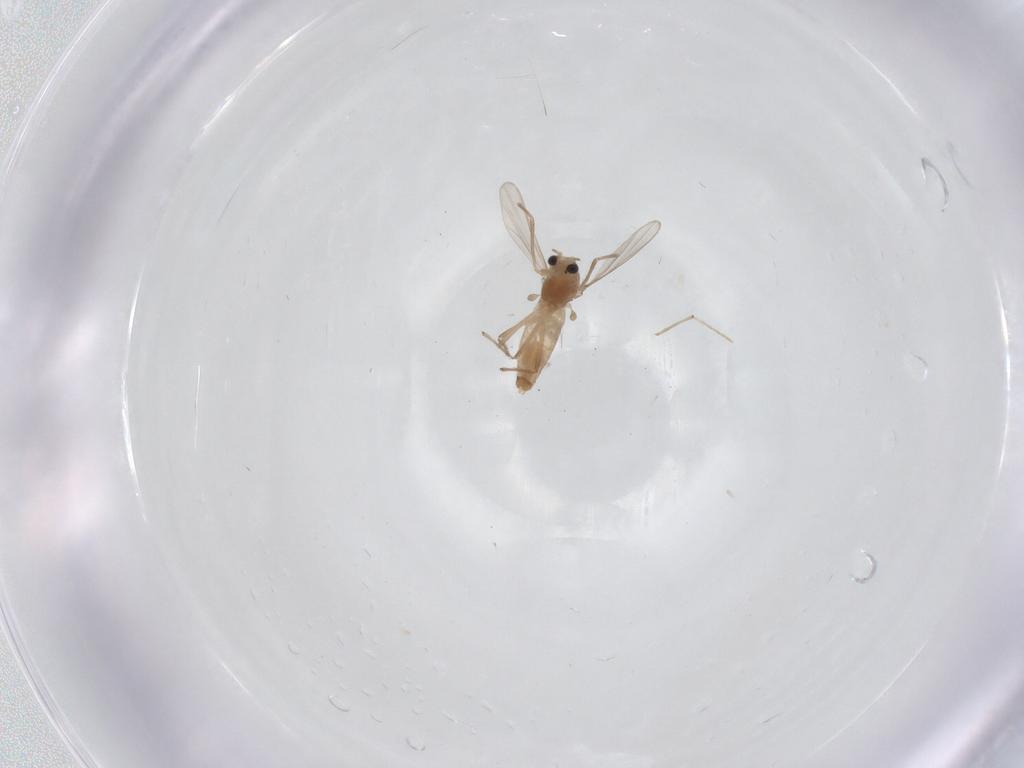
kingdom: Animalia
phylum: Arthropoda
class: Insecta
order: Diptera
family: Chironomidae
